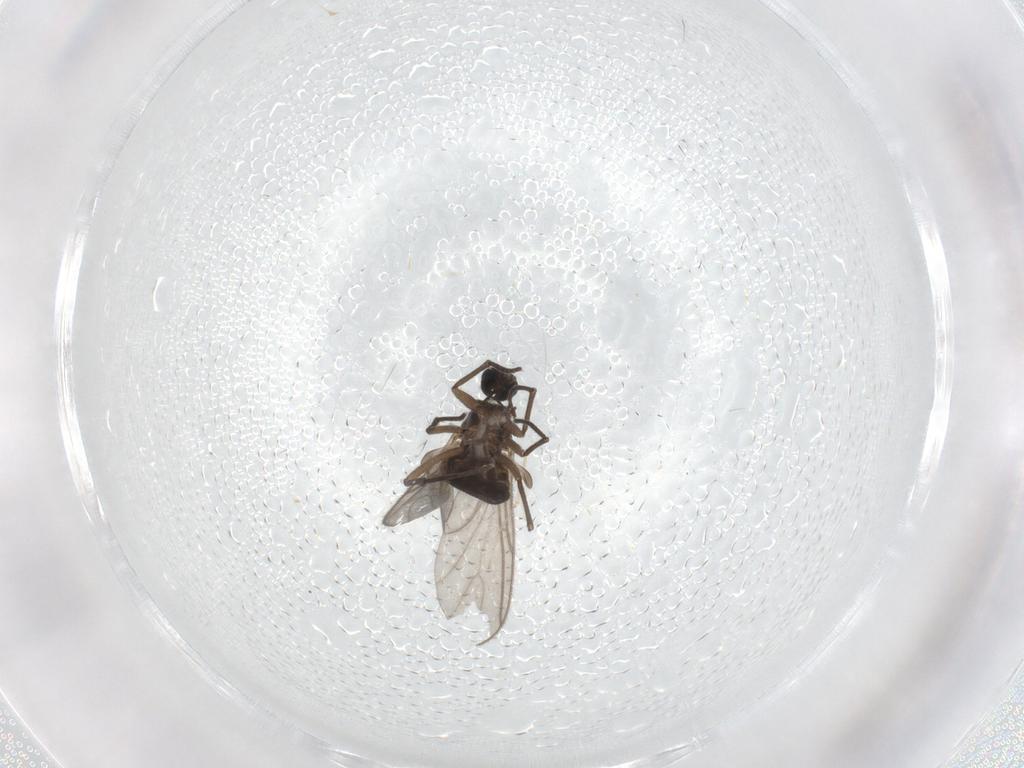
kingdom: Animalia
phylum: Arthropoda
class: Insecta
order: Diptera
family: Sciaridae
